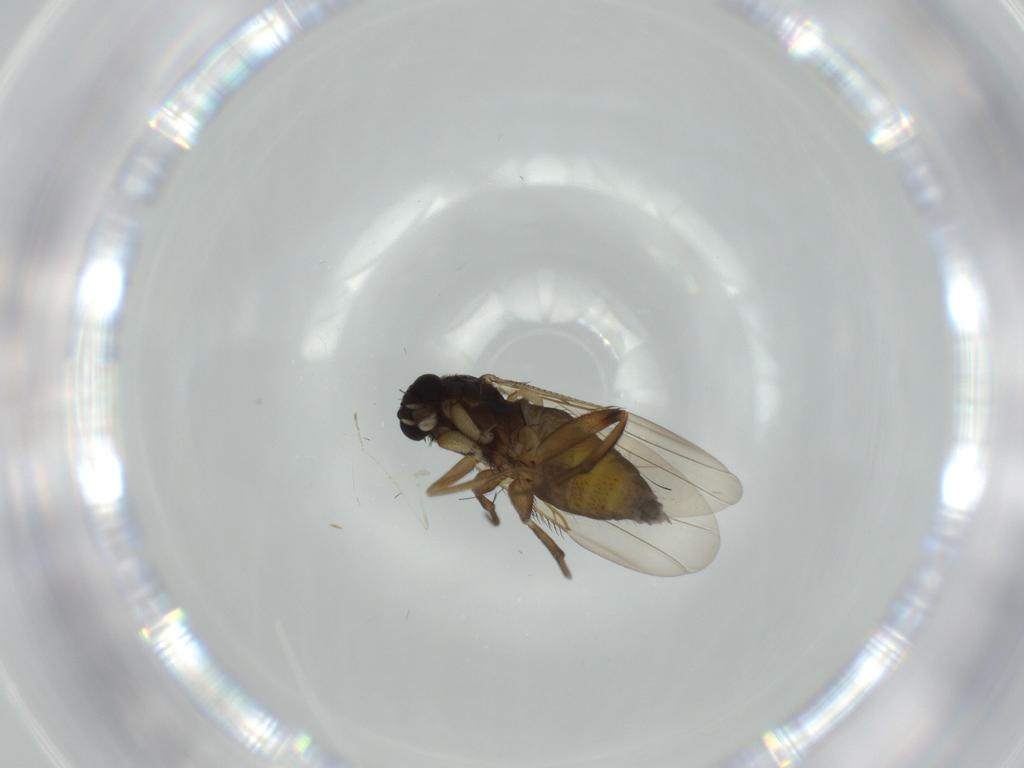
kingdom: Animalia
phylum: Arthropoda
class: Insecta
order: Diptera
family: Phoridae
